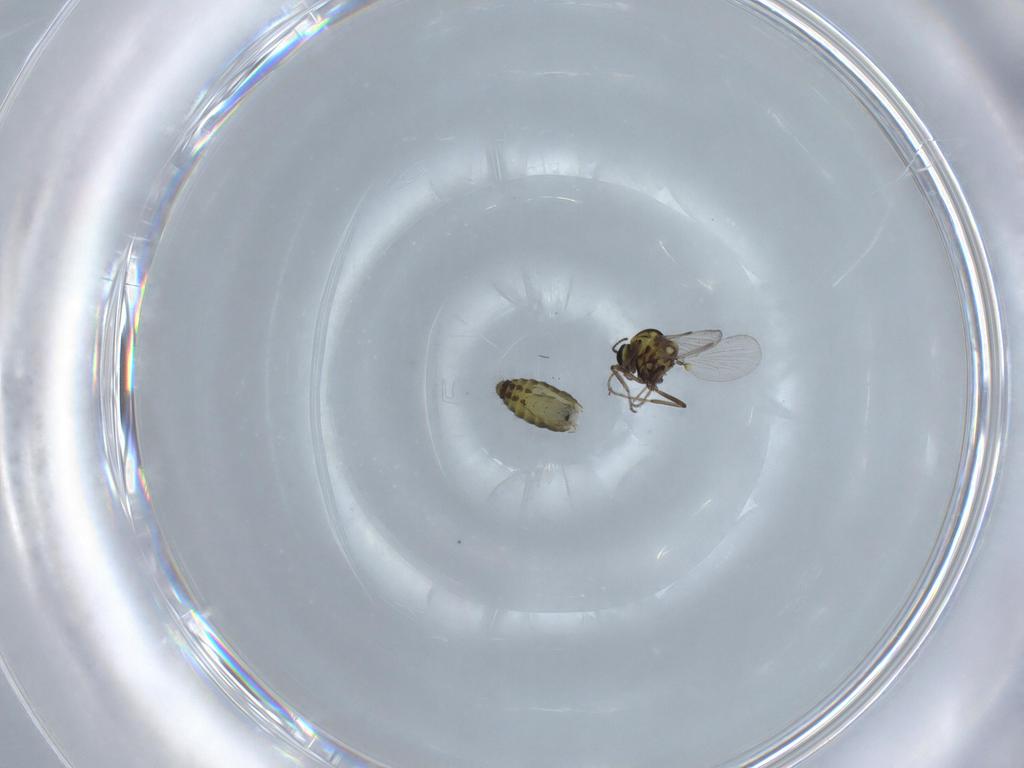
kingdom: Animalia
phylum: Arthropoda
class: Insecta
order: Diptera
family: Ceratopogonidae
